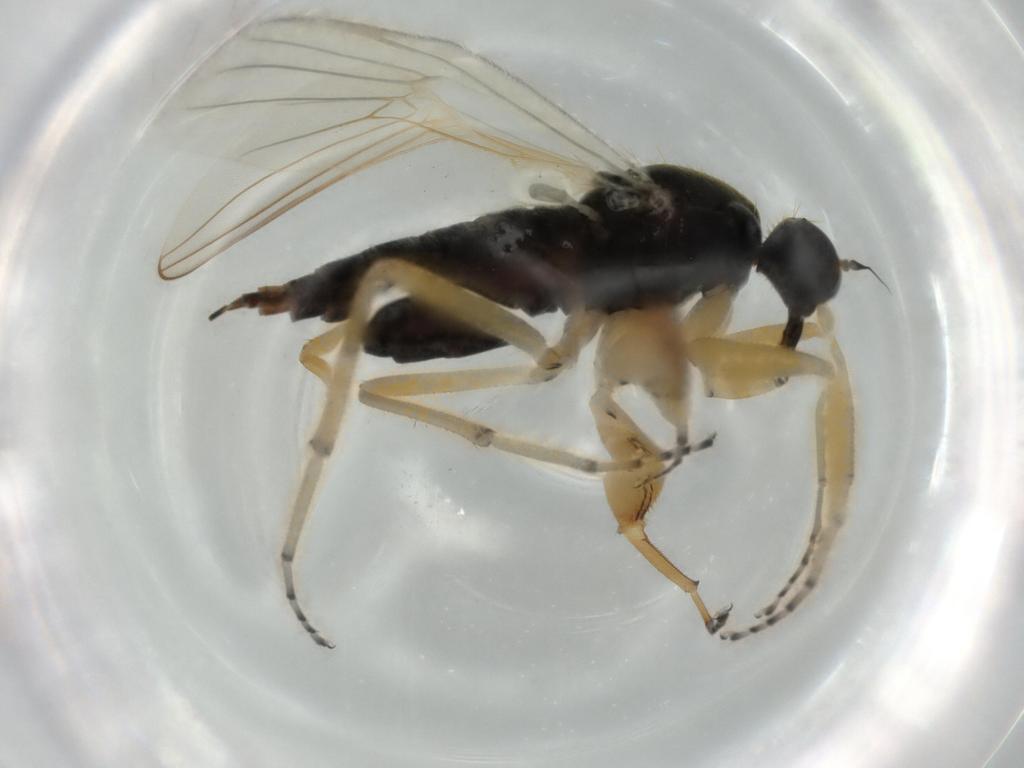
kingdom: Animalia
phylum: Arthropoda
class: Insecta
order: Diptera
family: Hybotidae
